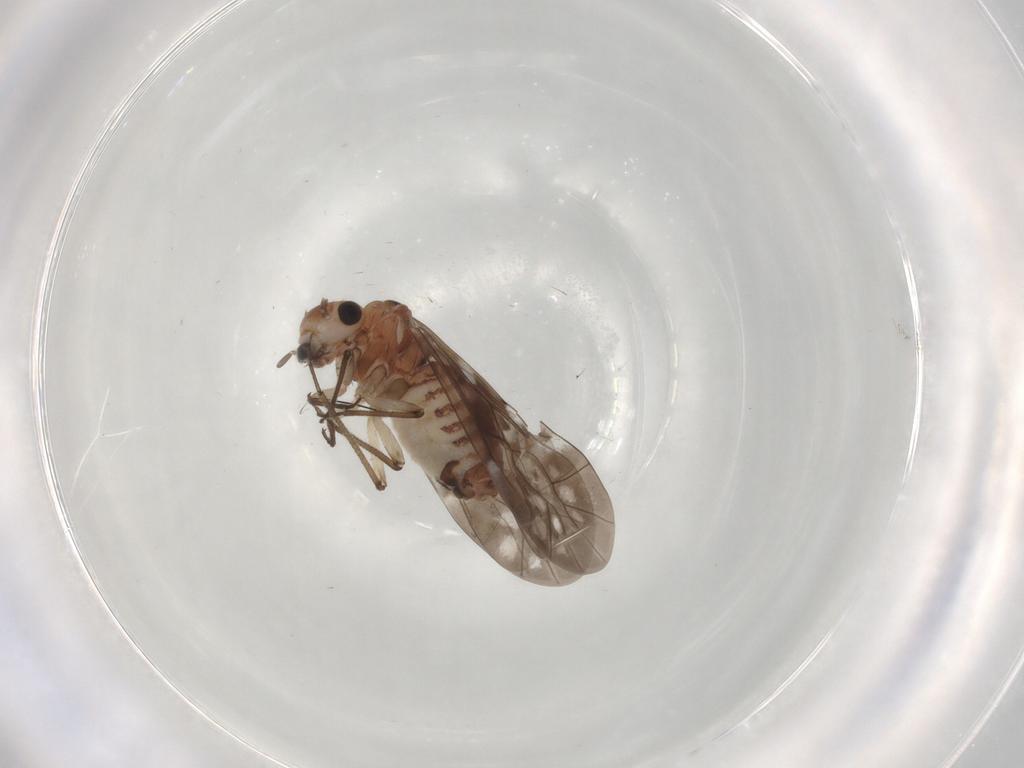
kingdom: Animalia
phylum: Arthropoda
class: Insecta
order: Psocodea
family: Ectopsocidae
